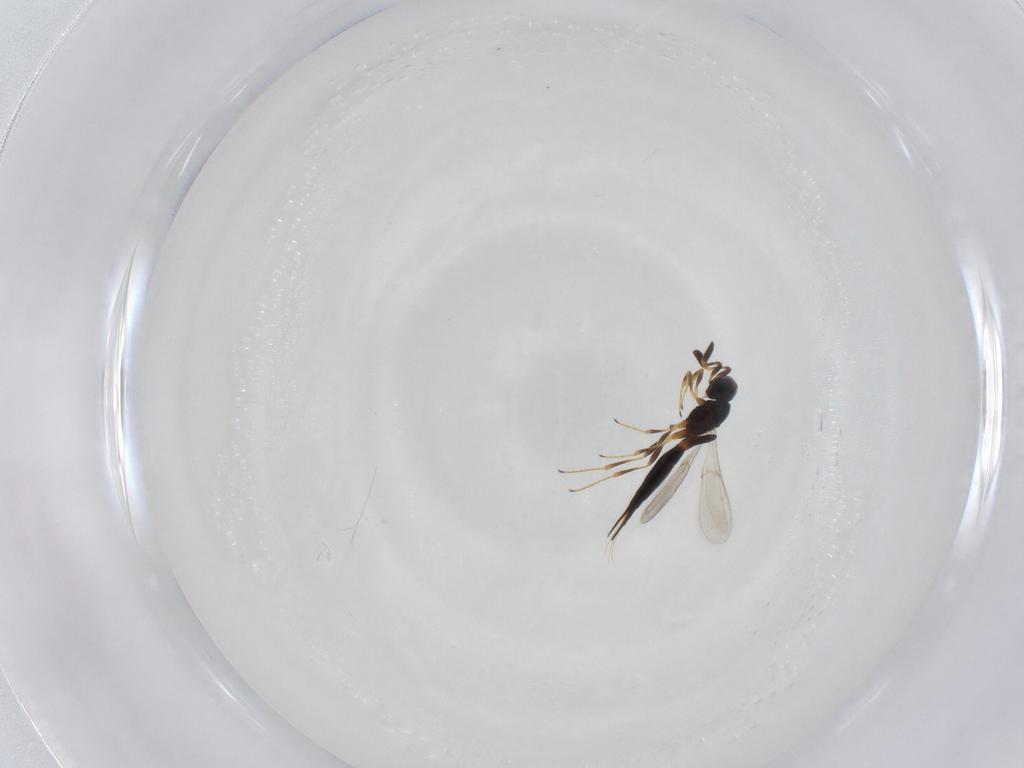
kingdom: Animalia
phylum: Arthropoda
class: Insecta
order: Hymenoptera
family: Scelionidae
